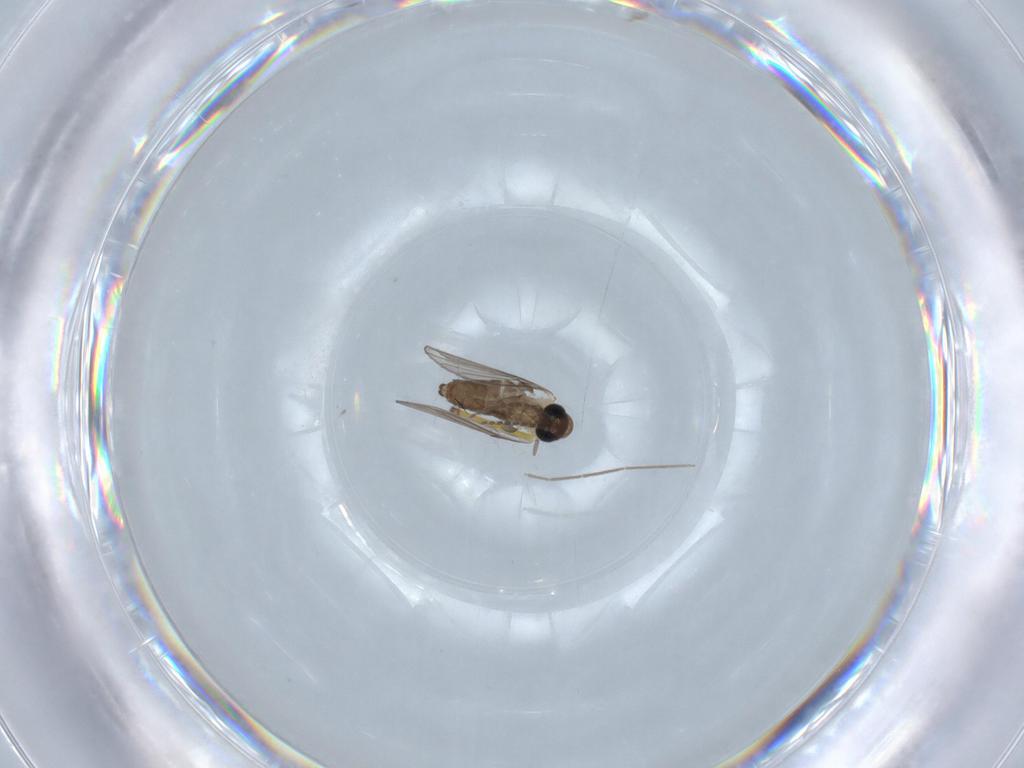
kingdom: Animalia
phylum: Arthropoda
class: Insecta
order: Diptera
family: Psychodidae
